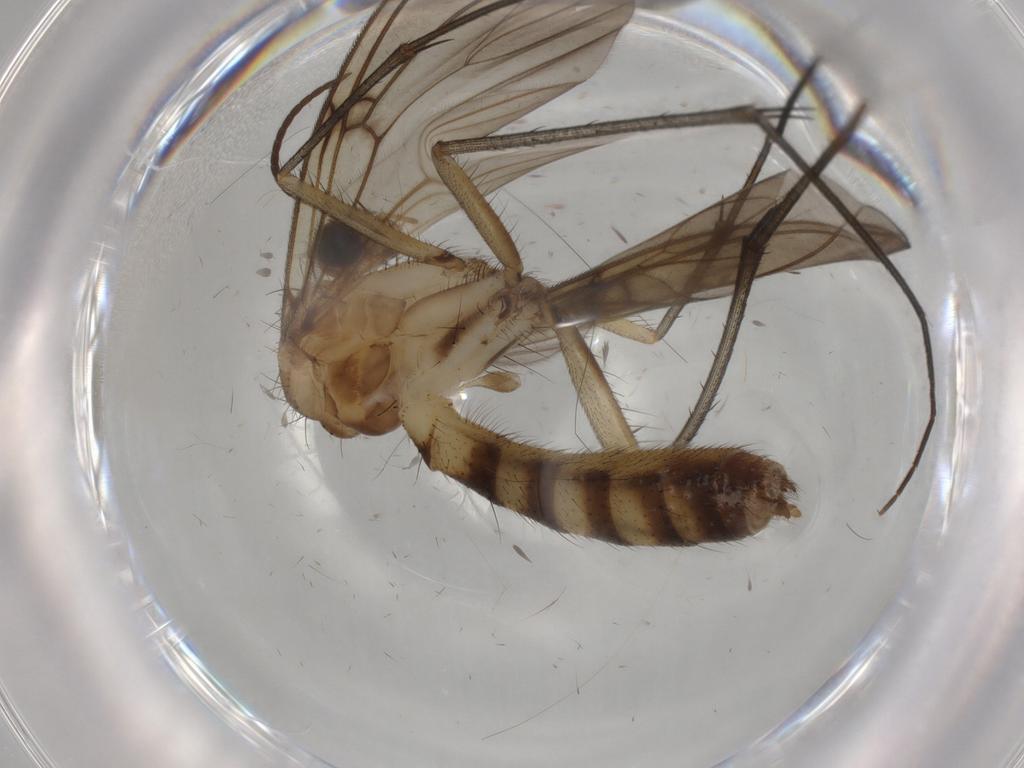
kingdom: Animalia
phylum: Arthropoda
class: Insecta
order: Diptera
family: Mycetophilidae
